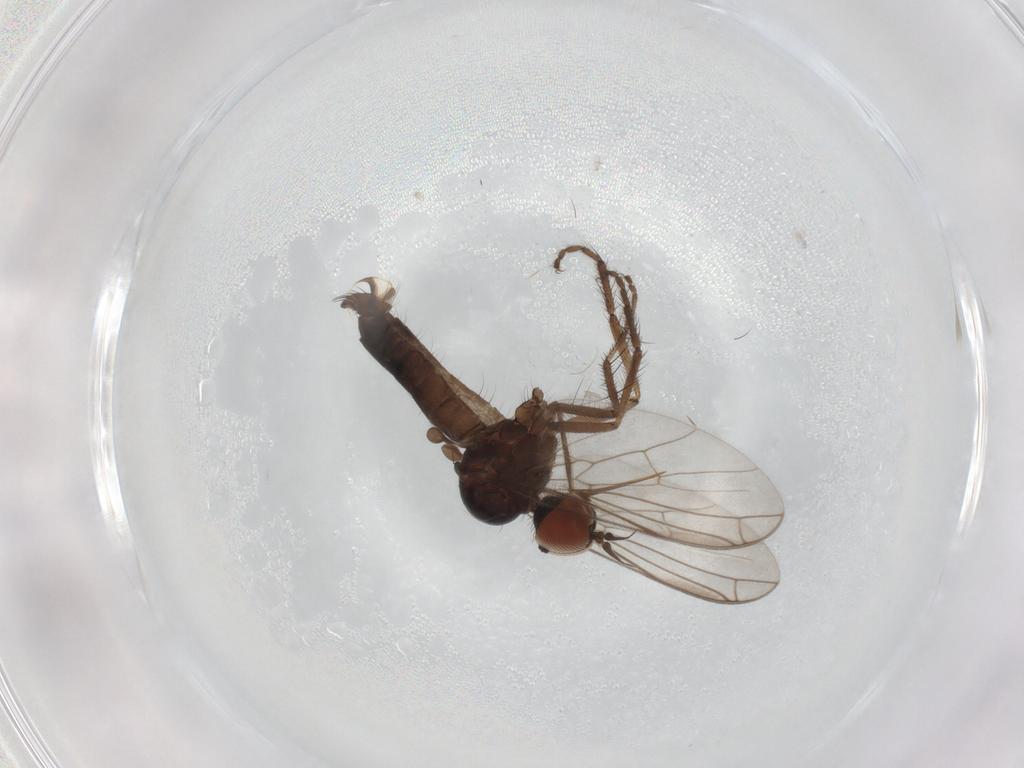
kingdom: Animalia
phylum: Arthropoda
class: Insecta
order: Diptera
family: Empididae
